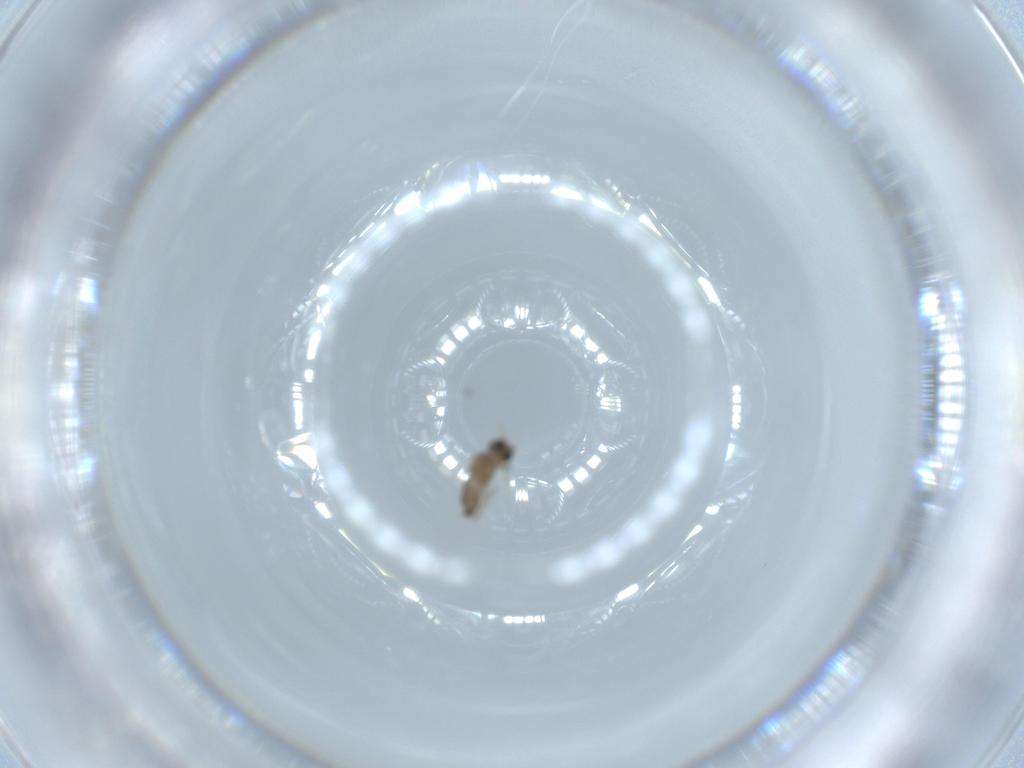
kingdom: Animalia
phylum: Arthropoda
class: Insecta
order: Diptera
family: Cecidomyiidae
